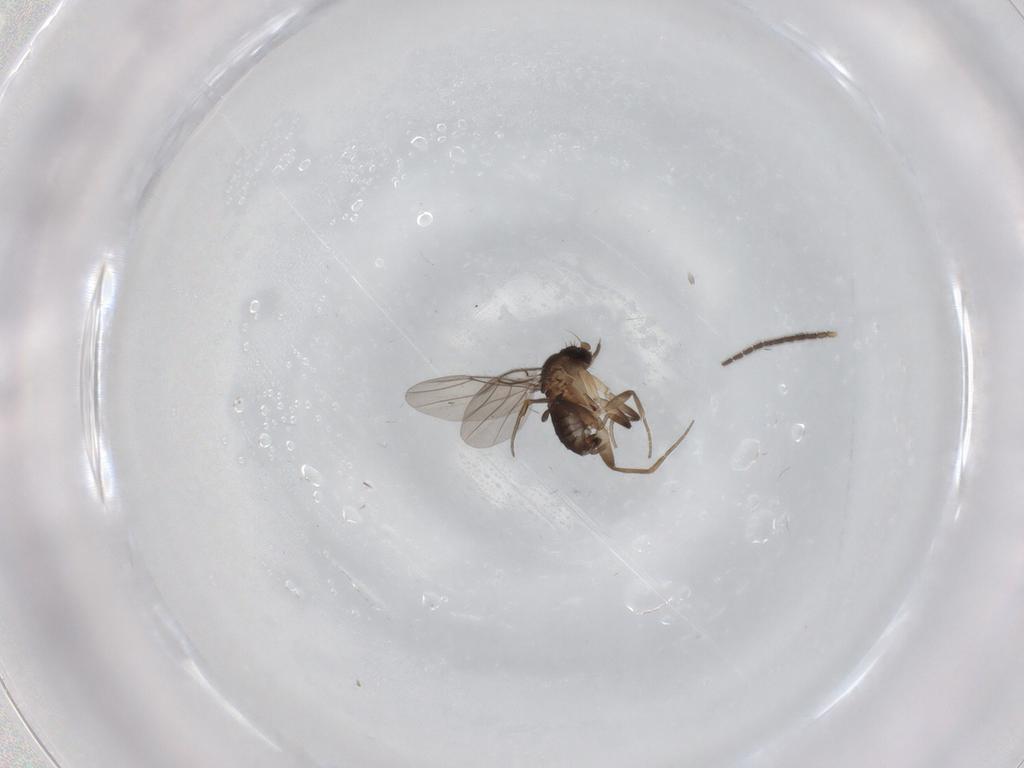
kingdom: Animalia
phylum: Arthropoda
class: Insecta
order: Diptera
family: Sciaridae
